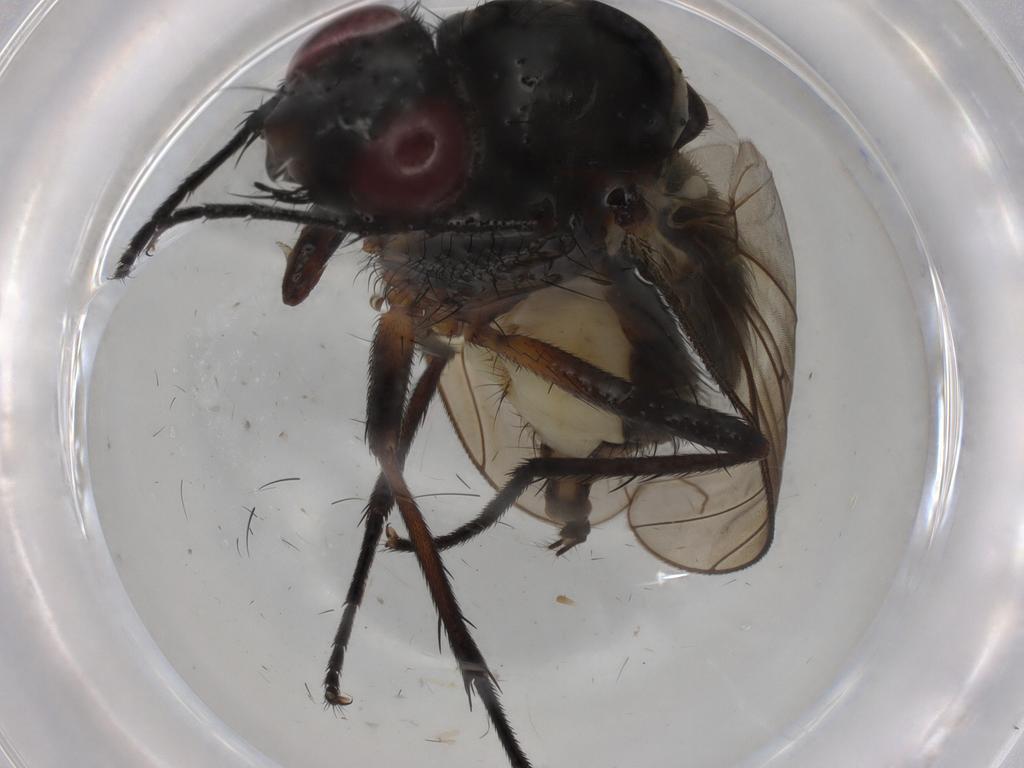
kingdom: Animalia
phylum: Arthropoda
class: Insecta
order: Diptera
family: Anthomyiidae
